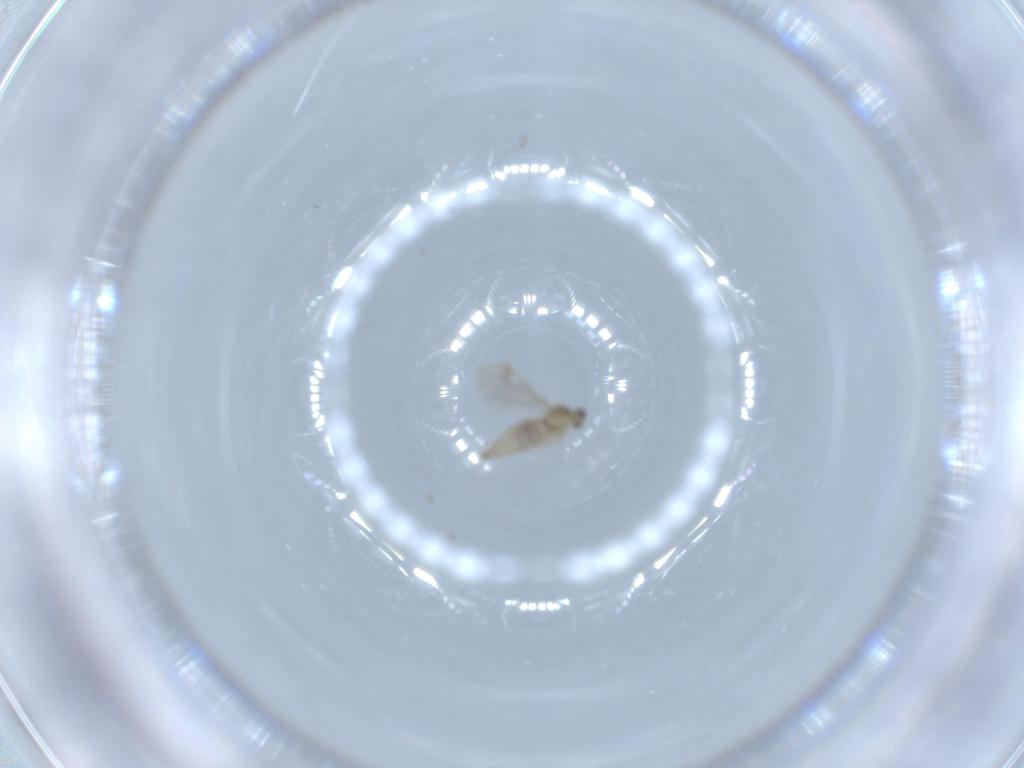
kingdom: Animalia
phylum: Arthropoda
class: Insecta
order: Diptera
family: Cecidomyiidae
